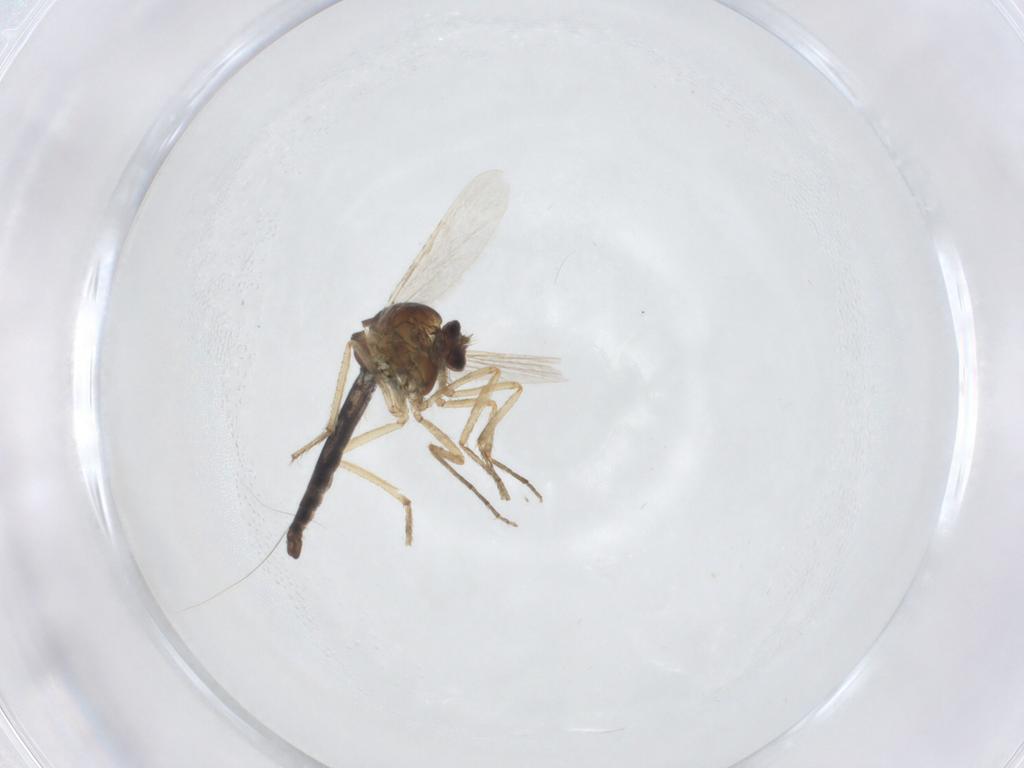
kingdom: Animalia
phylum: Arthropoda
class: Insecta
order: Diptera
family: Ceratopogonidae
